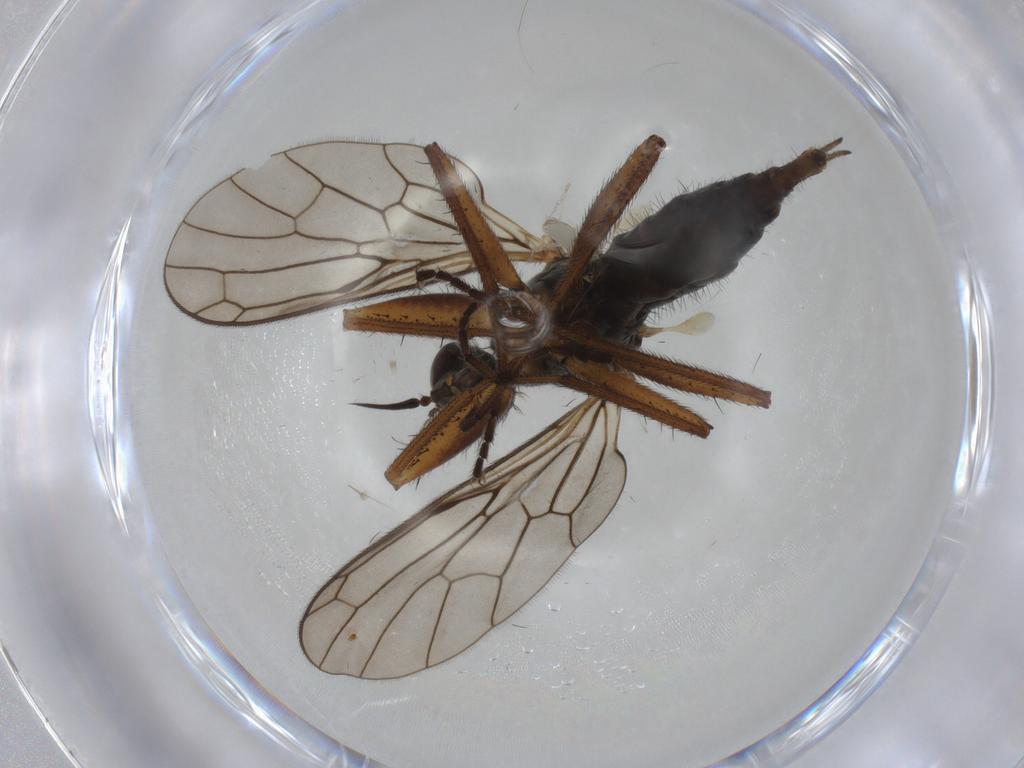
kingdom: Animalia
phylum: Arthropoda
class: Insecta
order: Diptera
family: Empididae
